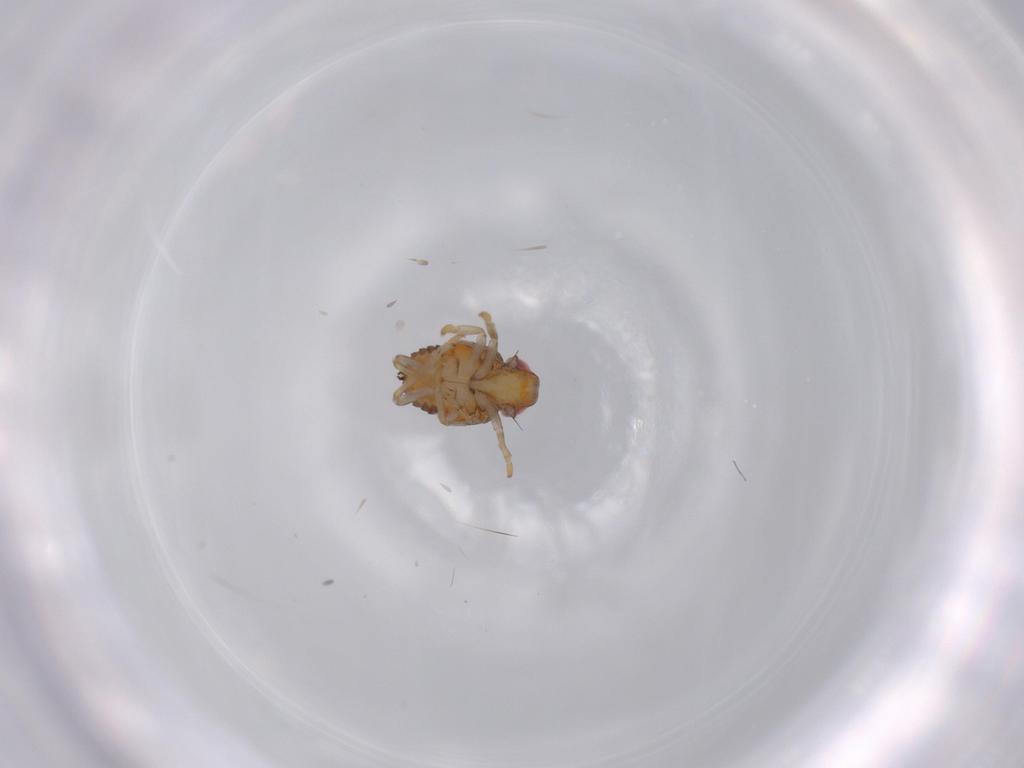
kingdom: Animalia
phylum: Arthropoda
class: Insecta
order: Hemiptera
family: Issidae
